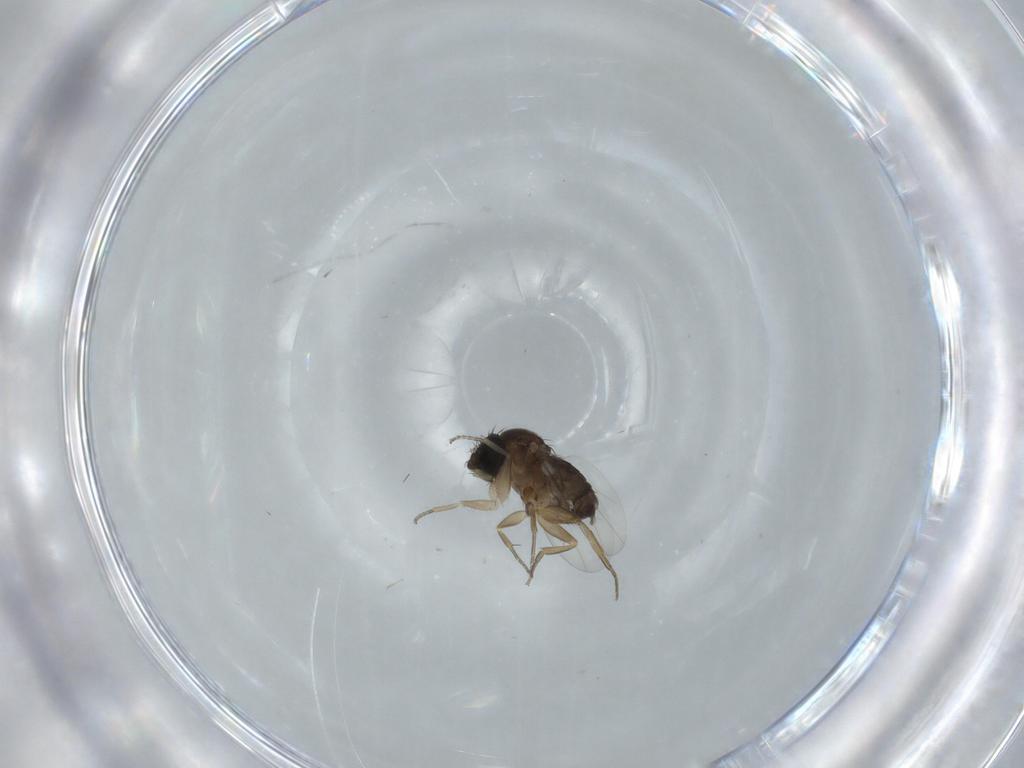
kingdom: Animalia
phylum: Arthropoda
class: Insecta
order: Diptera
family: Phoridae
